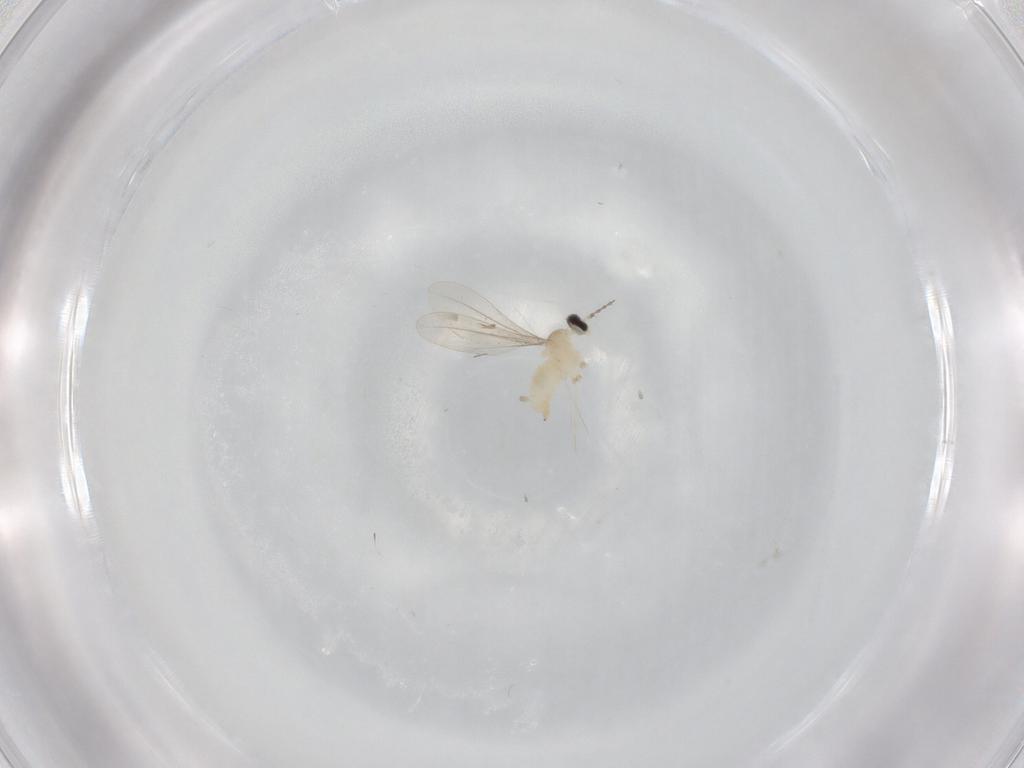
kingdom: Animalia
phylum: Arthropoda
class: Insecta
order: Diptera
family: Cecidomyiidae
